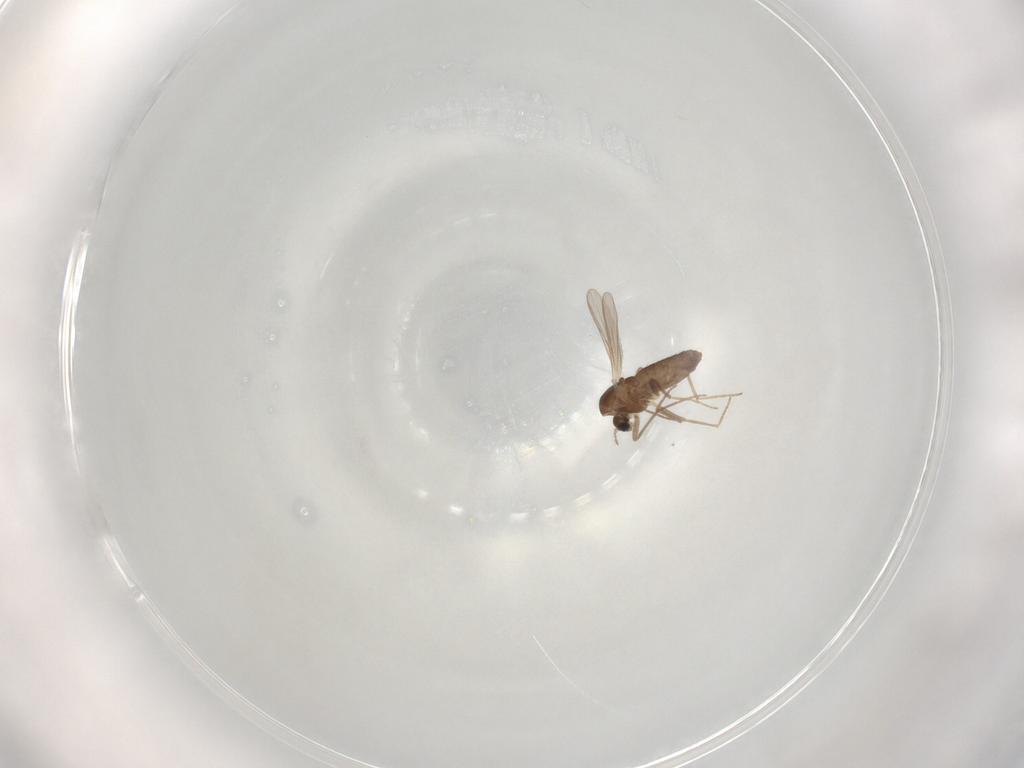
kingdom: Animalia
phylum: Arthropoda
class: Insecta
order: Diptera
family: Chironomidae
